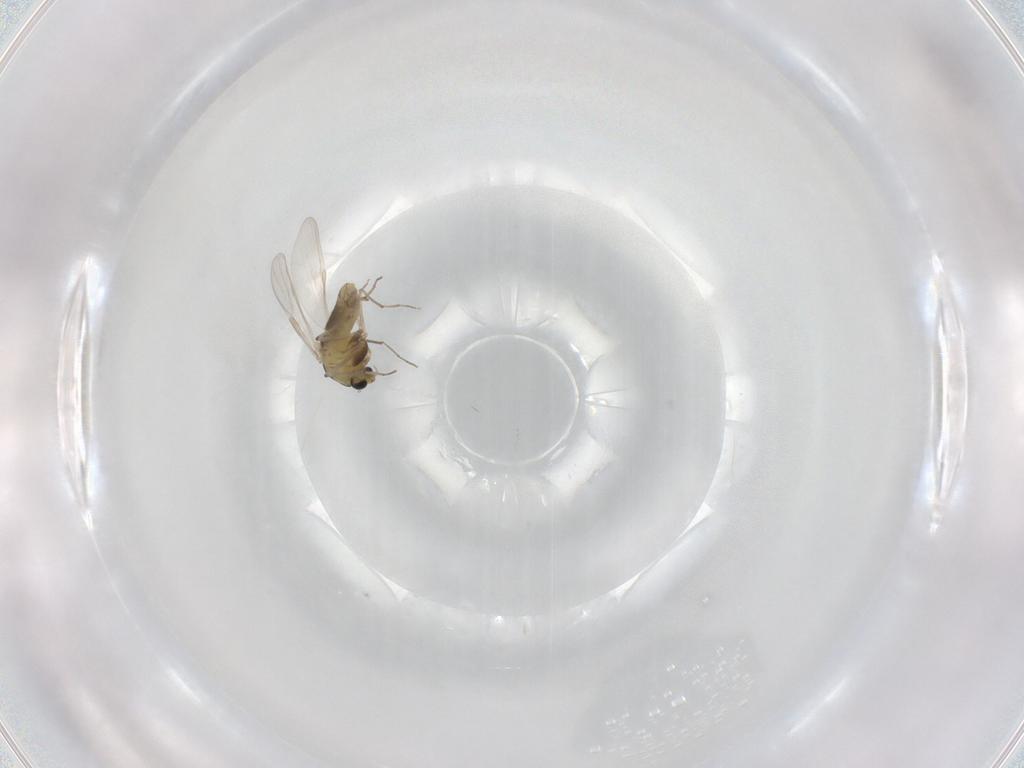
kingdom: Animalia
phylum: Arthropoda
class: Insecta
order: Diptera
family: Chironomidae
